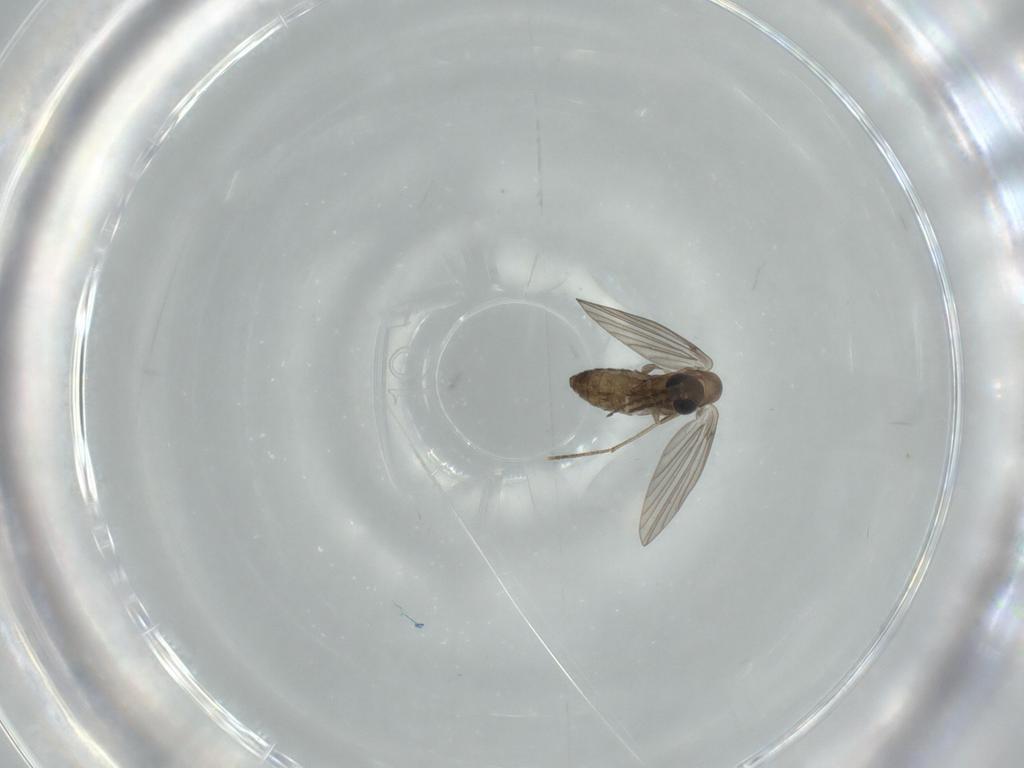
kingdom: Animalia
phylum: Arthropoda
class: Insecta
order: Diptera
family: Psychodidae
